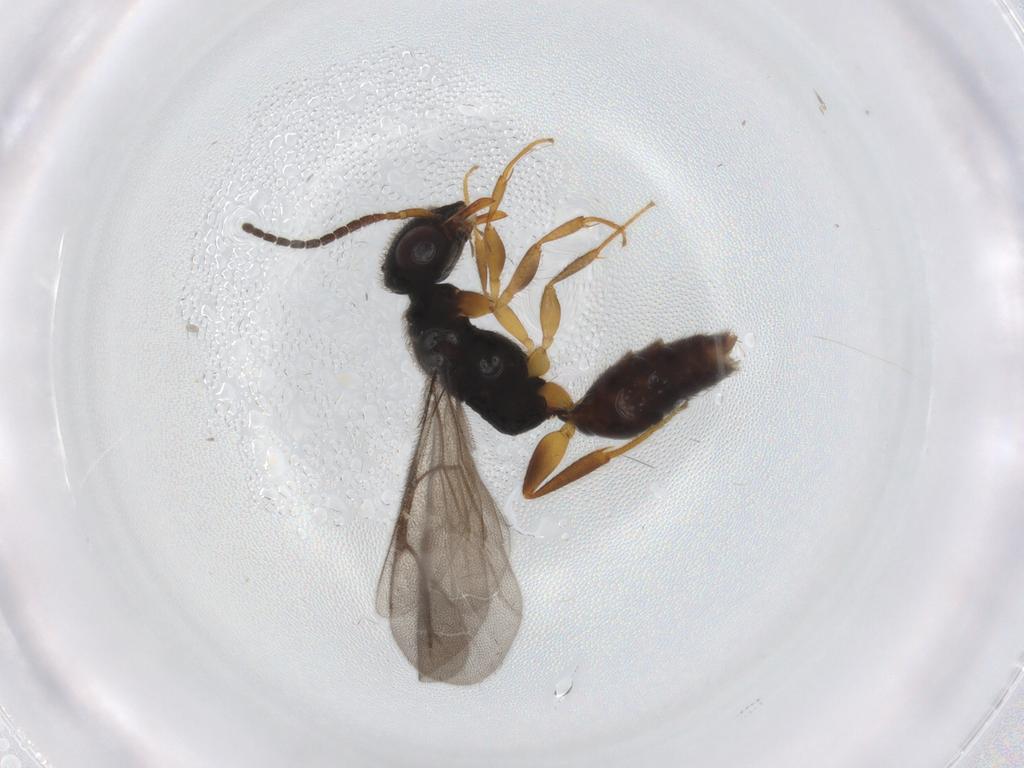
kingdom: Animalia
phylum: Arthropoda
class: Insecta
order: Hymenoptera
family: Bethylidae
